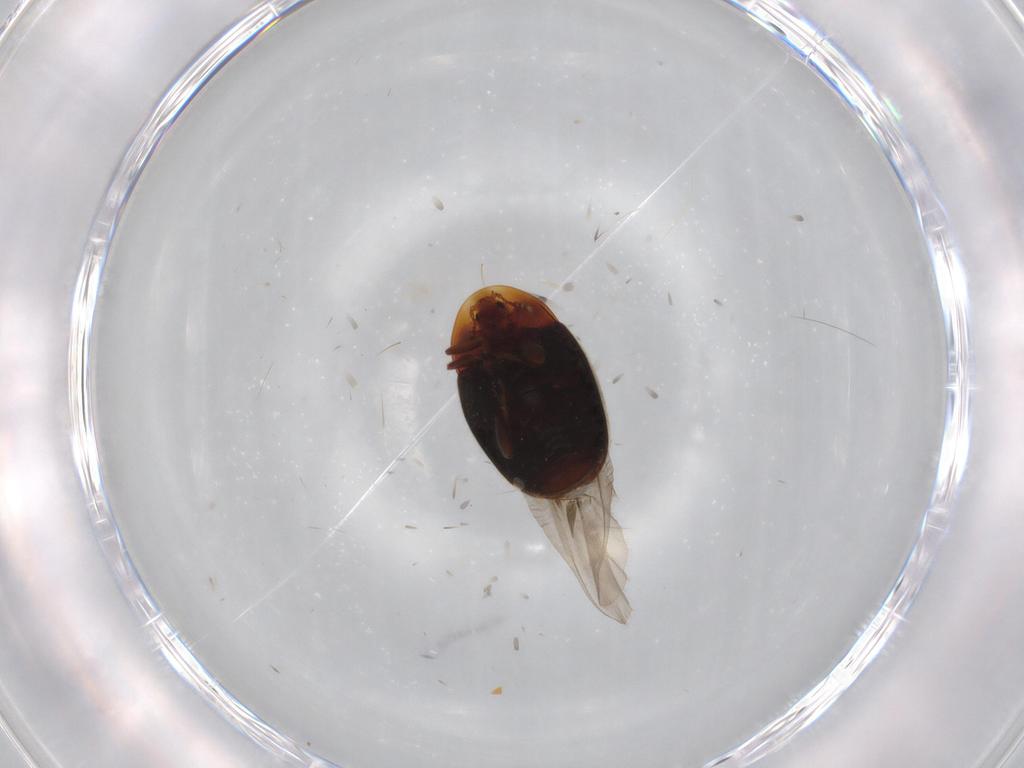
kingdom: Animalia
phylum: Arthropoda
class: Insecta
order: Coleoptera
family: Corylophidae
